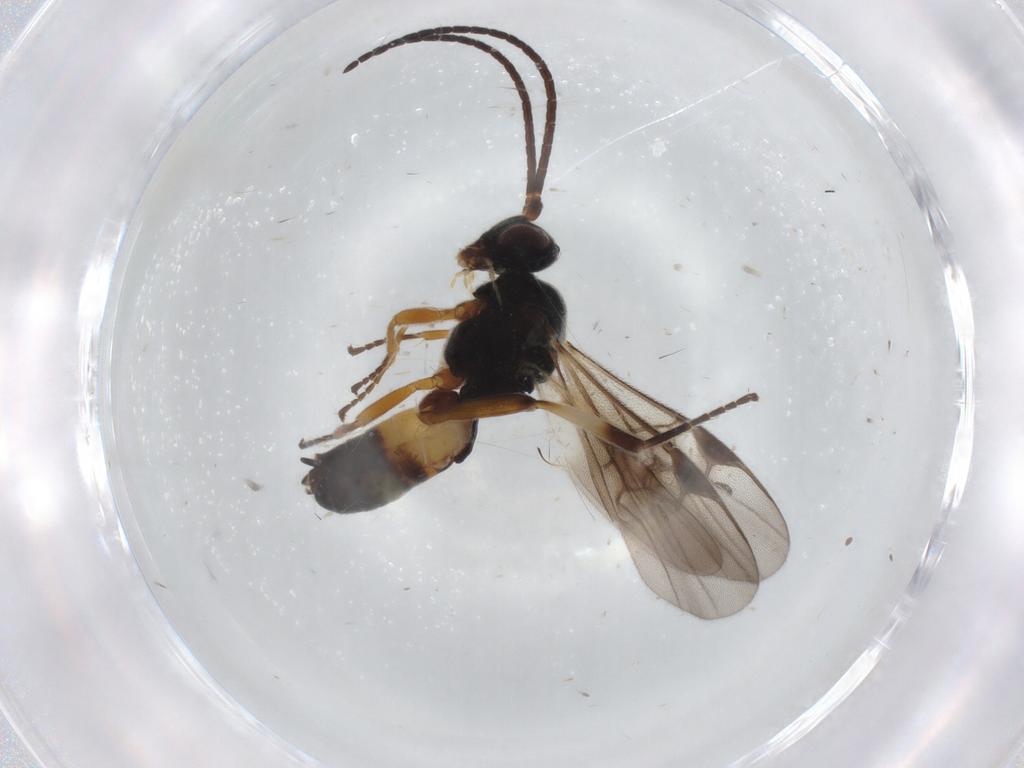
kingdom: Animalia
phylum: Arthropoda
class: Insecta
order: Hymenoptera
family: Braconidae
